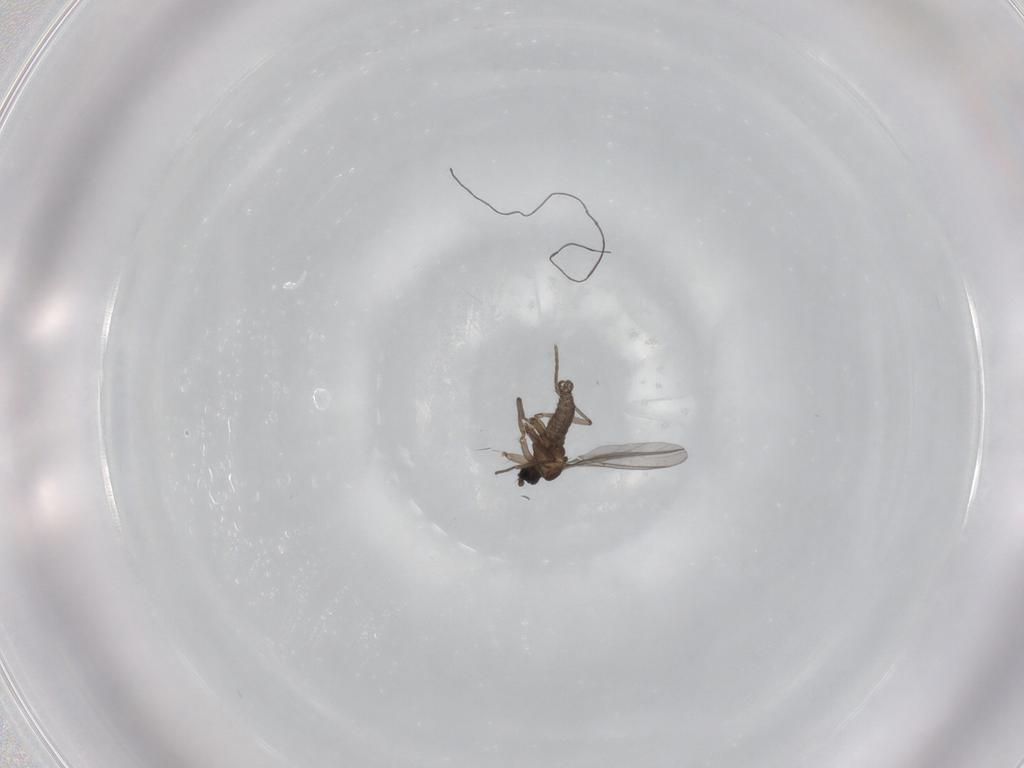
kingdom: Animalia
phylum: Arthropoda
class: Insecta
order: Diptera
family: Sciaridae
